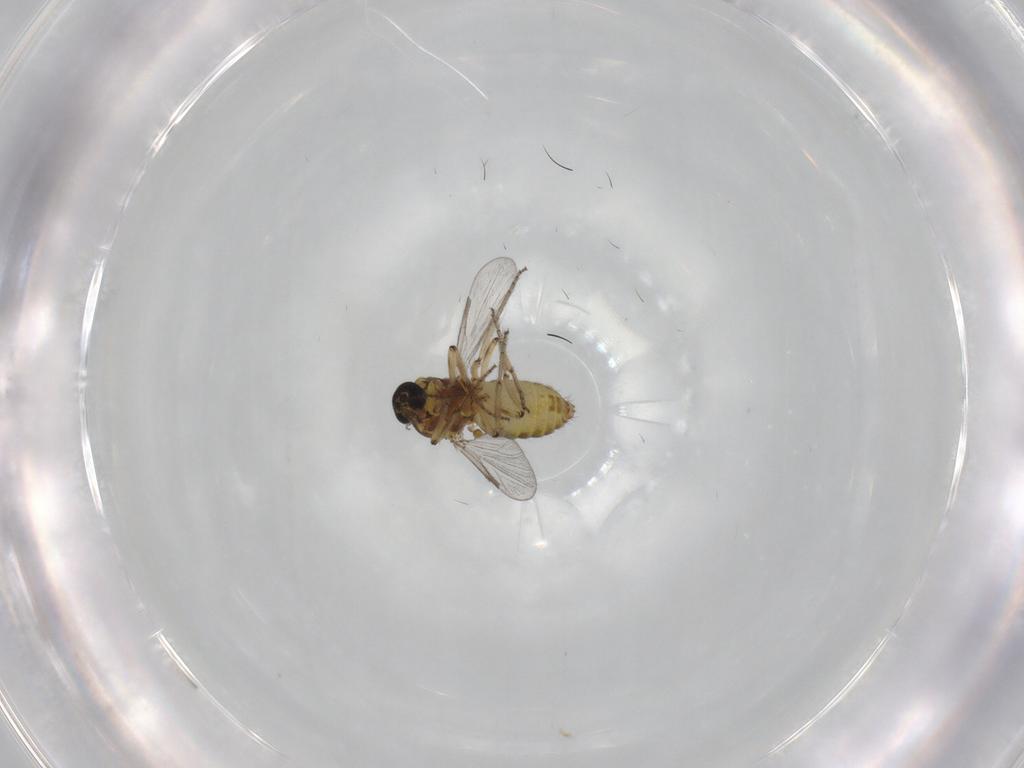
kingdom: Animalia
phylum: Arthropoda
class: Insecta
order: Diptera
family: Ceratopogonidae
